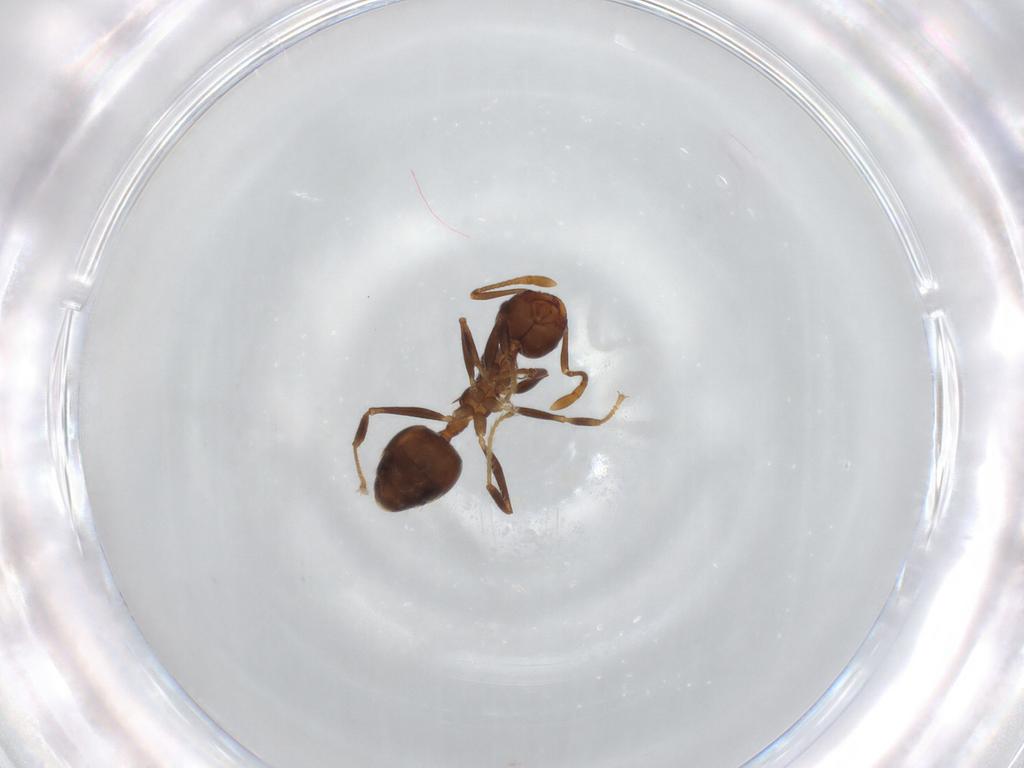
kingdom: Animalia
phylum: Arthropoda
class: Insecta
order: Hymenoptera
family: Formicidae
